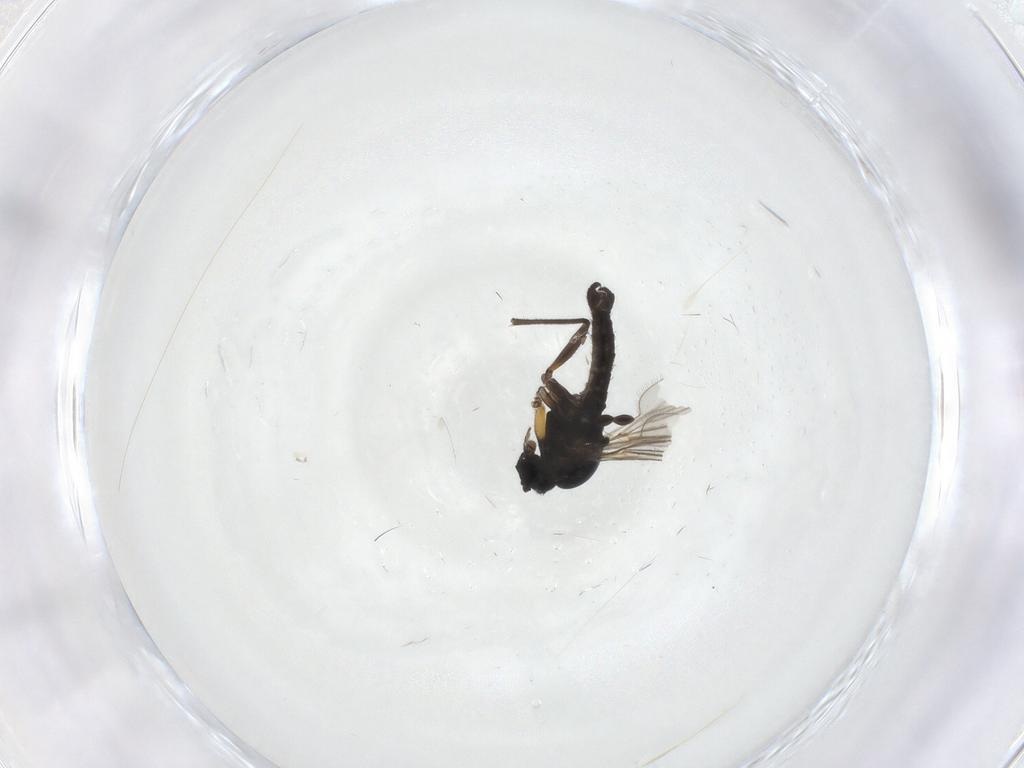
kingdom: Animalia
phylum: Arthropoda
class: Insecta
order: Diptera
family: Sciaridae
